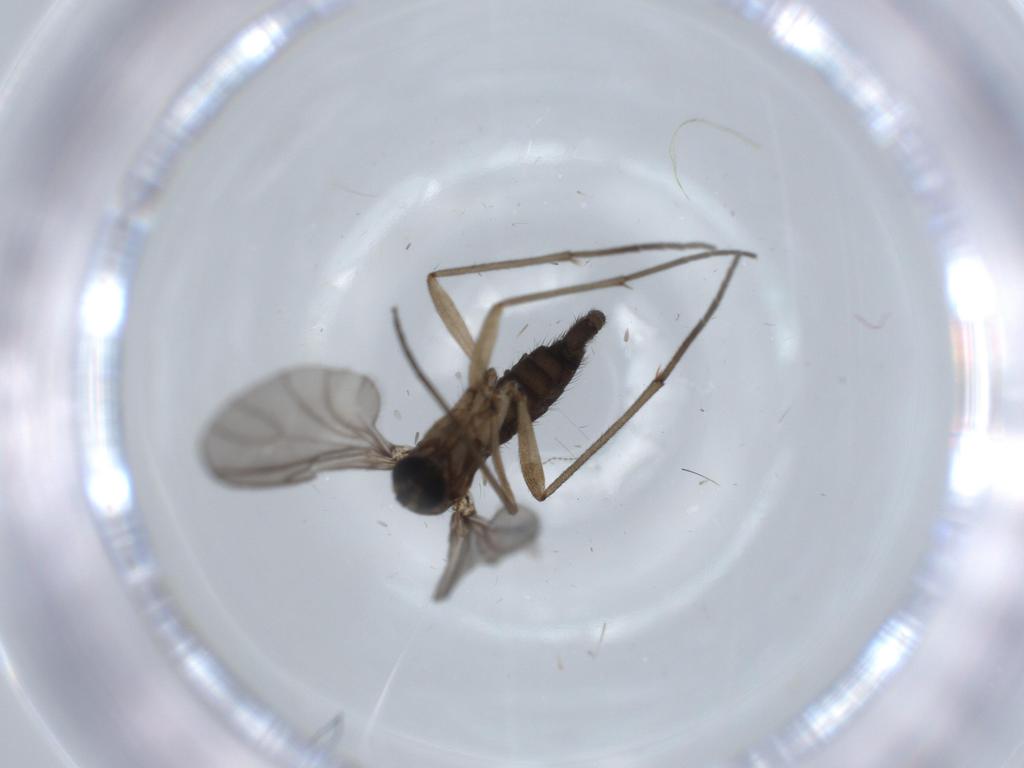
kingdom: Animalia
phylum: Arthropoda
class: Insecta
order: Diptera
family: Sciaridae
